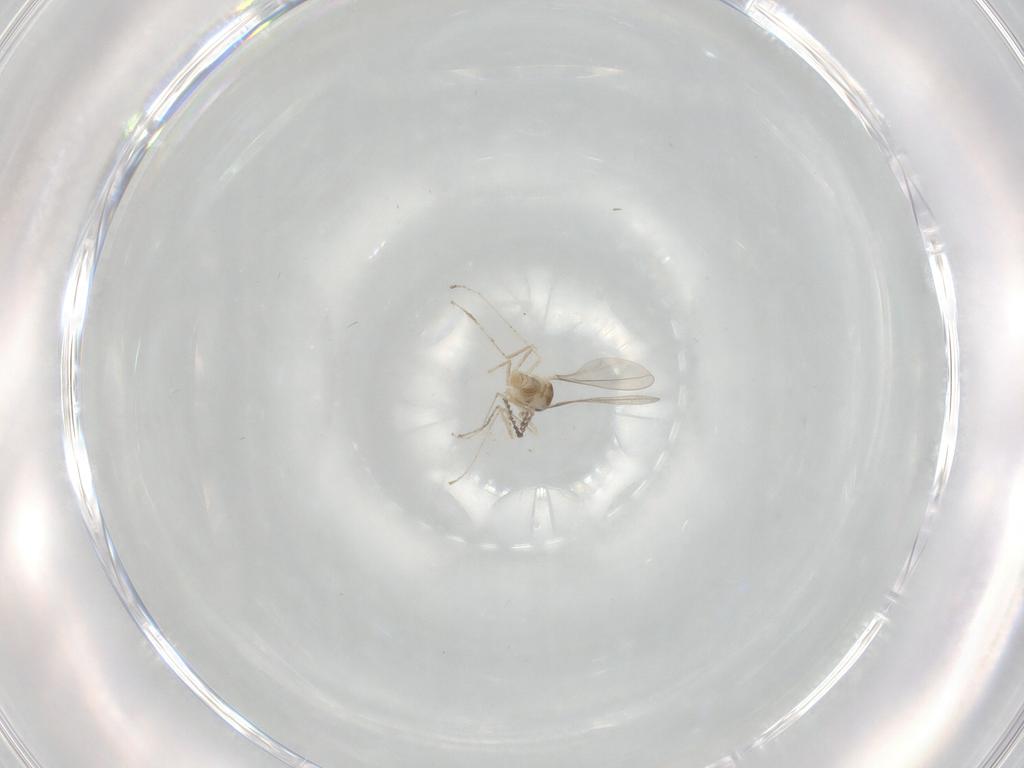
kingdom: Animalia
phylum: Arthropoda
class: Insecta
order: Diptera
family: Cecidomyiidae
